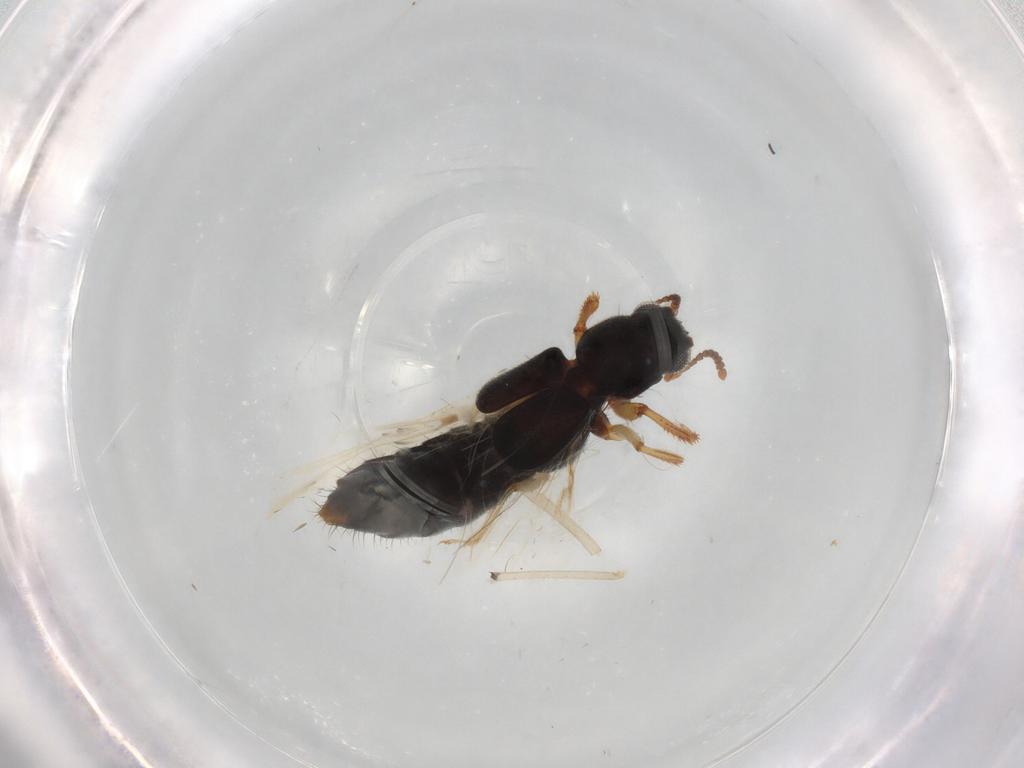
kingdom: Animalia
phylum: Arthropoda
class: Insecta
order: Coleoptera
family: Staphylinidae
